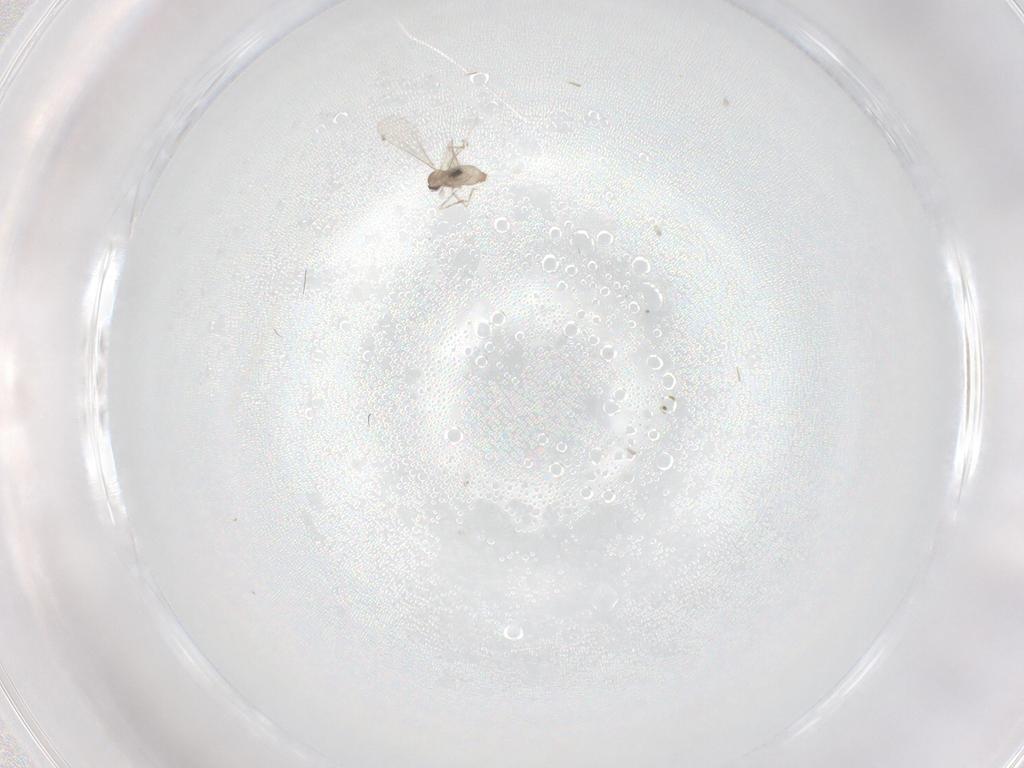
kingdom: Animalia
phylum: Arthropoda
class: Insecta
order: Diptera
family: Cecidomyiidae
